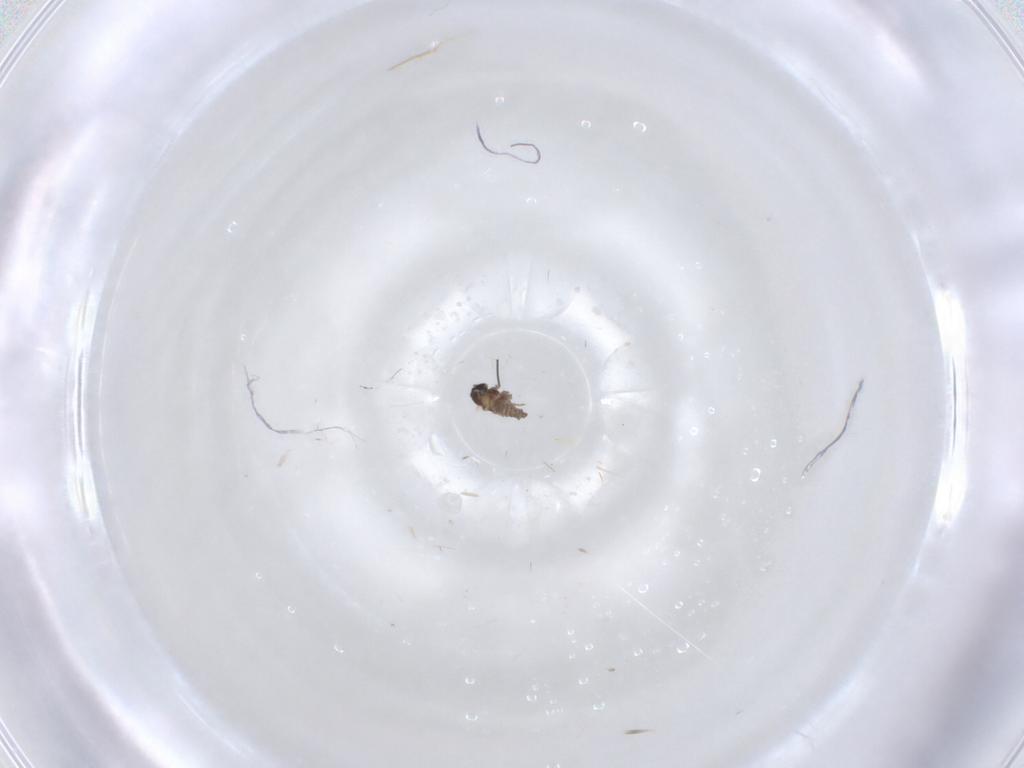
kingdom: Animalia
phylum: Arthropoda
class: Insecta
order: Diptera
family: Cecidomyiidae
